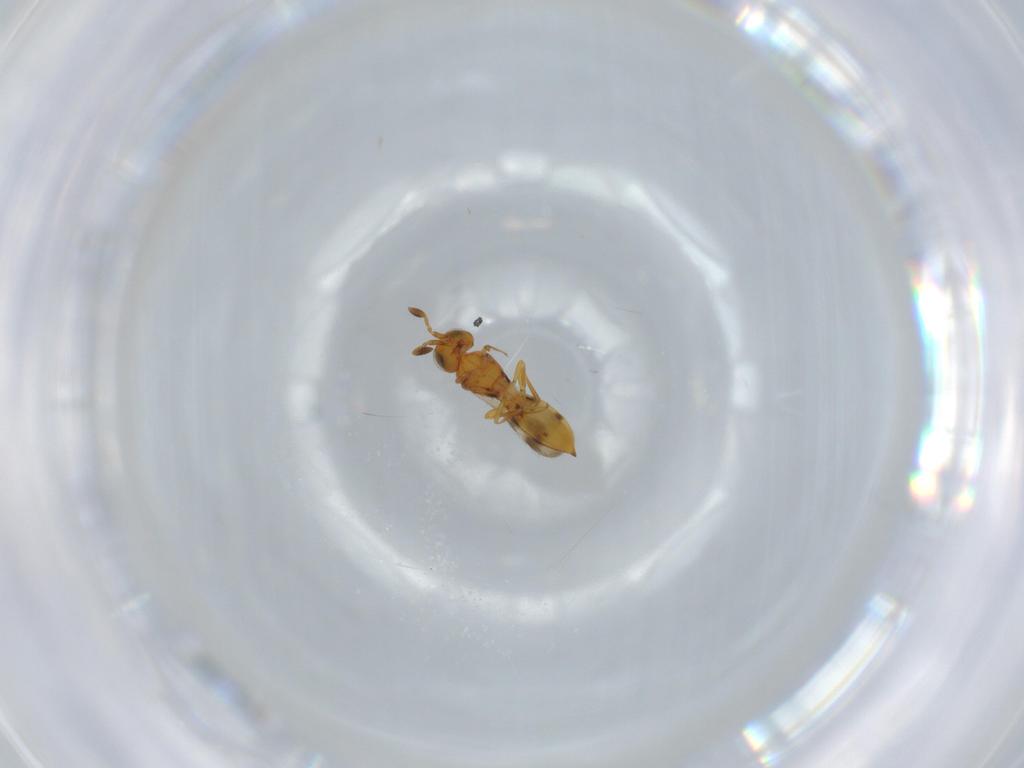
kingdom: Animalia
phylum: Arthropoda
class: Insecta
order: Hymenoptera
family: Scelionidae
